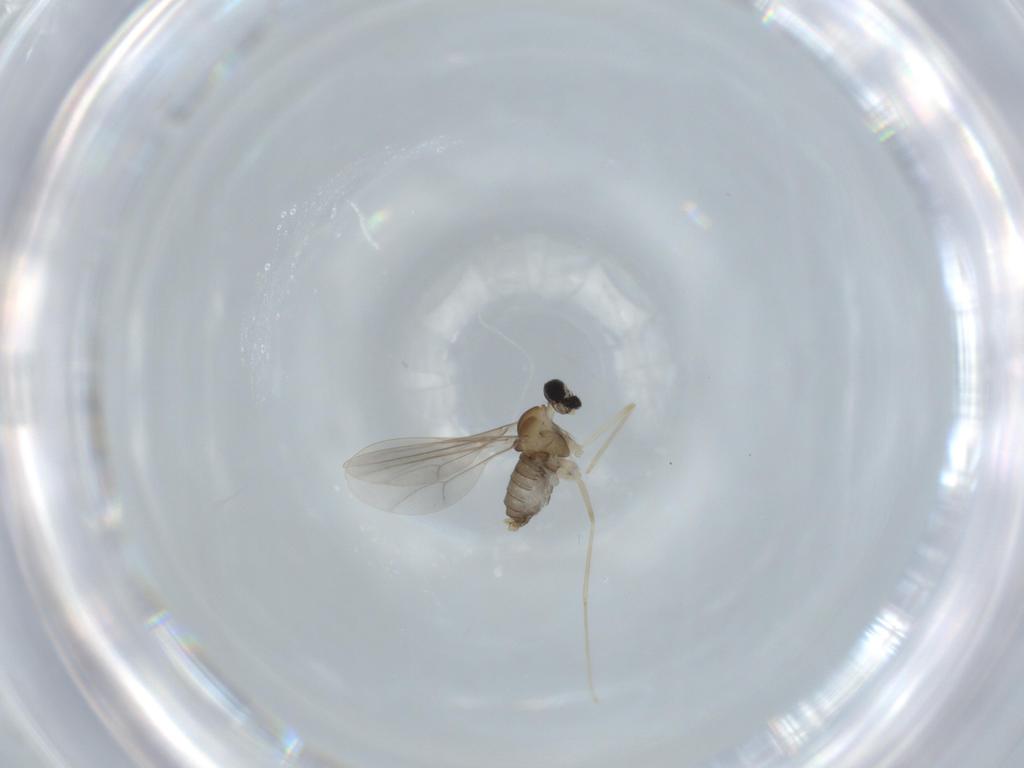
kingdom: Animalia
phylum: Arthropoda
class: Insecta
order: Diptera
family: Cecidomyiidae
